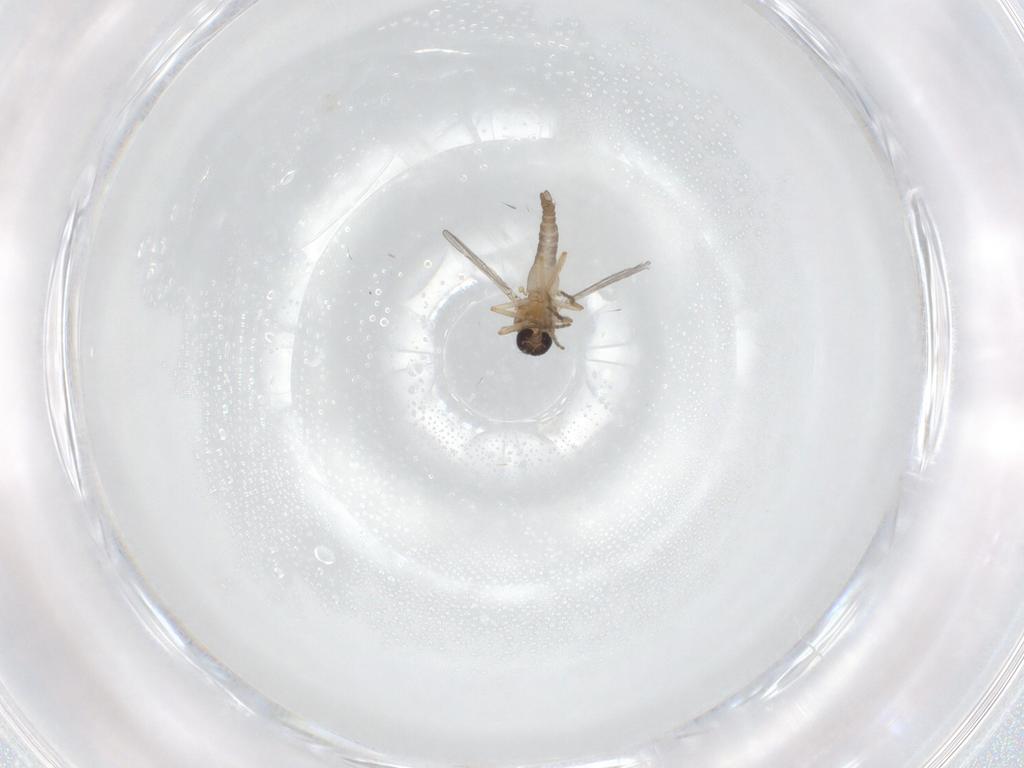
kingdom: Animalia
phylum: Arthropoda
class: Insecta
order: Diptera
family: Ceratopogonidae
